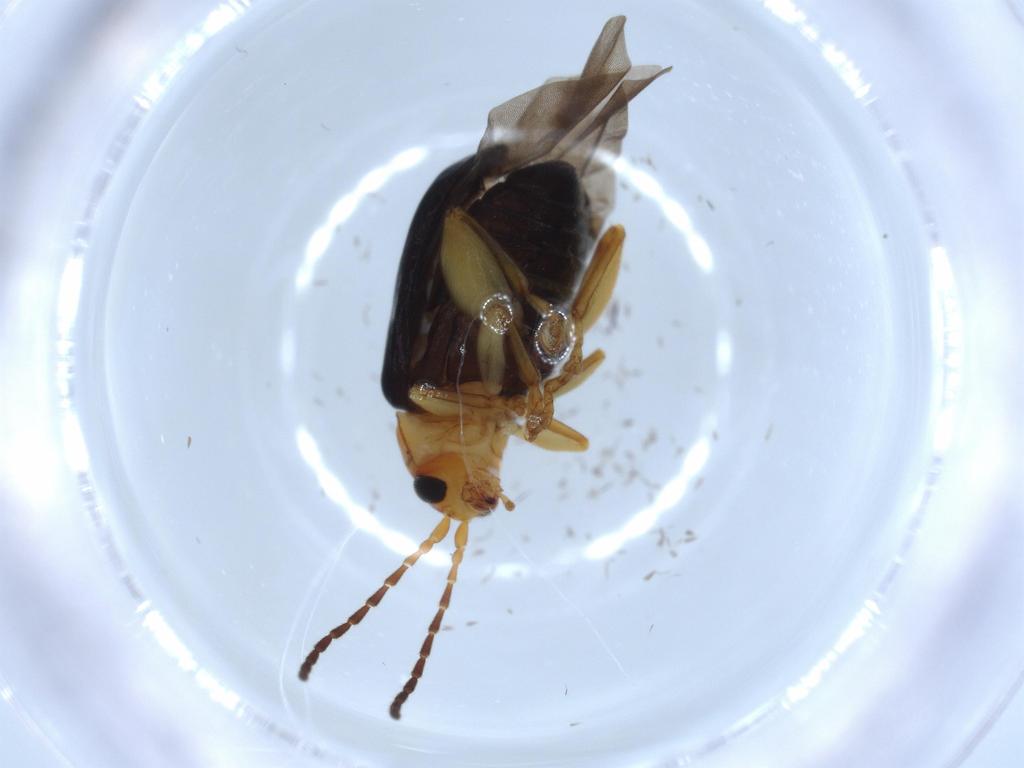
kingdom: Animalia
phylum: Arthropoda
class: Insecta
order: Coleoptera
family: Chrysomelidae
